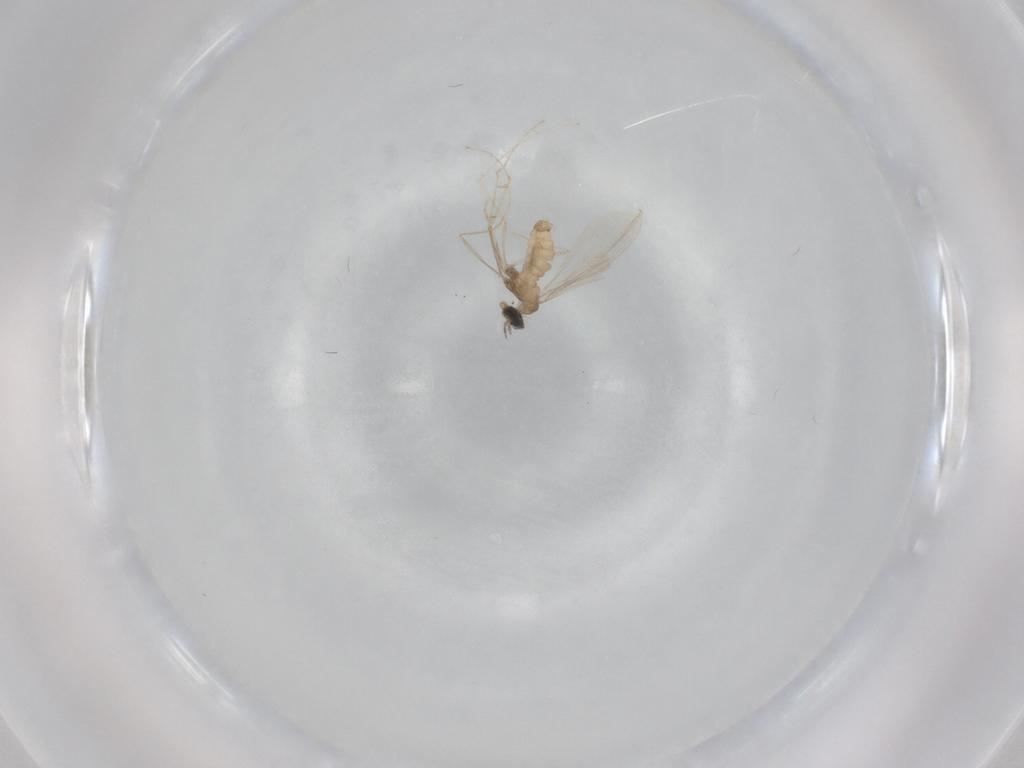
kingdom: Animalia
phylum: Arthropoda
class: Insecta
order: Diptera
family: Cecidomyiidae
